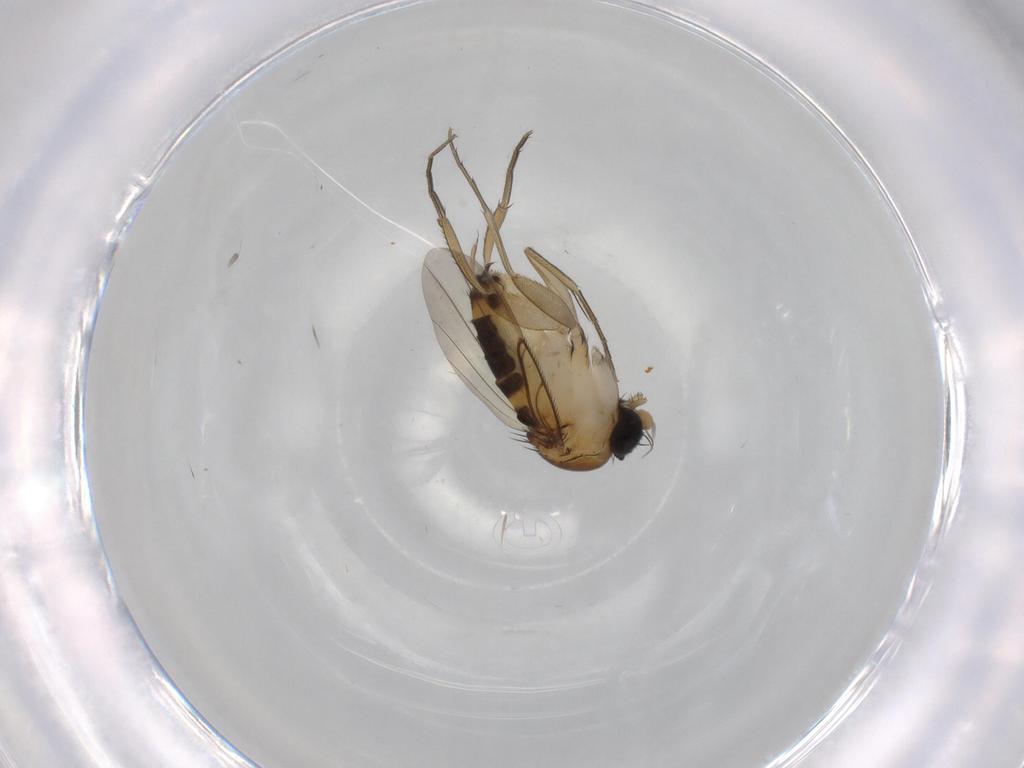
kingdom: Animalia
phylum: Arthropoda
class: Insecta
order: Diptera
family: Phoridae
